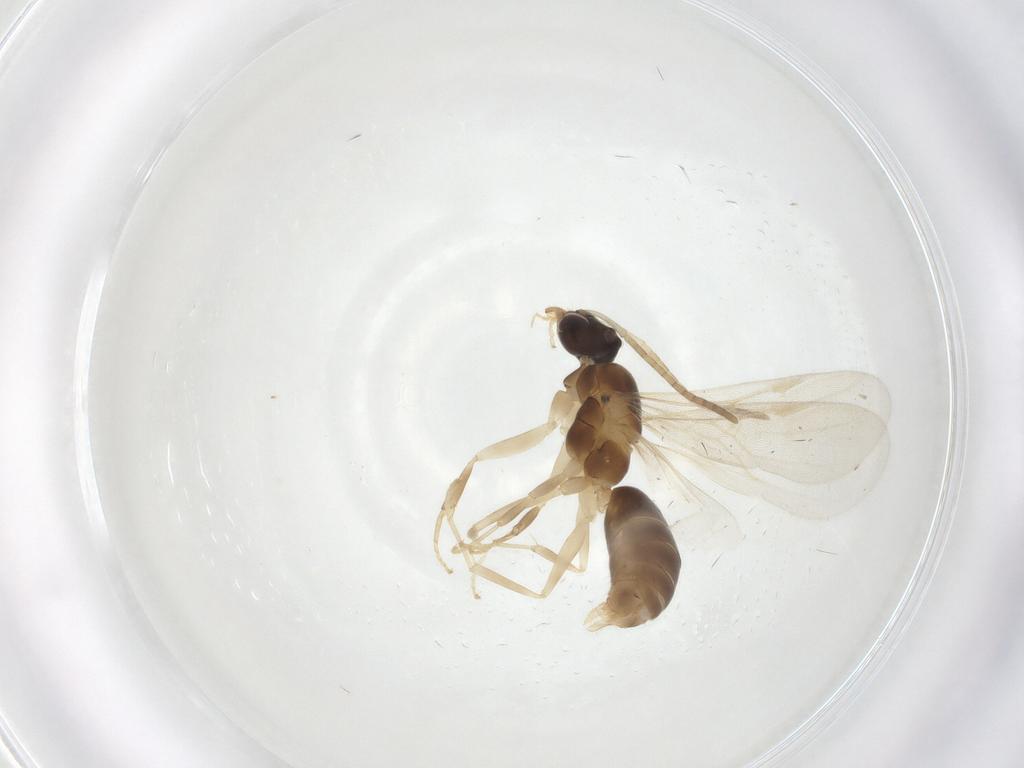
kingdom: Animalia
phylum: Arthropoda
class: Insecta
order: Hymenoptera
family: Formicidae
